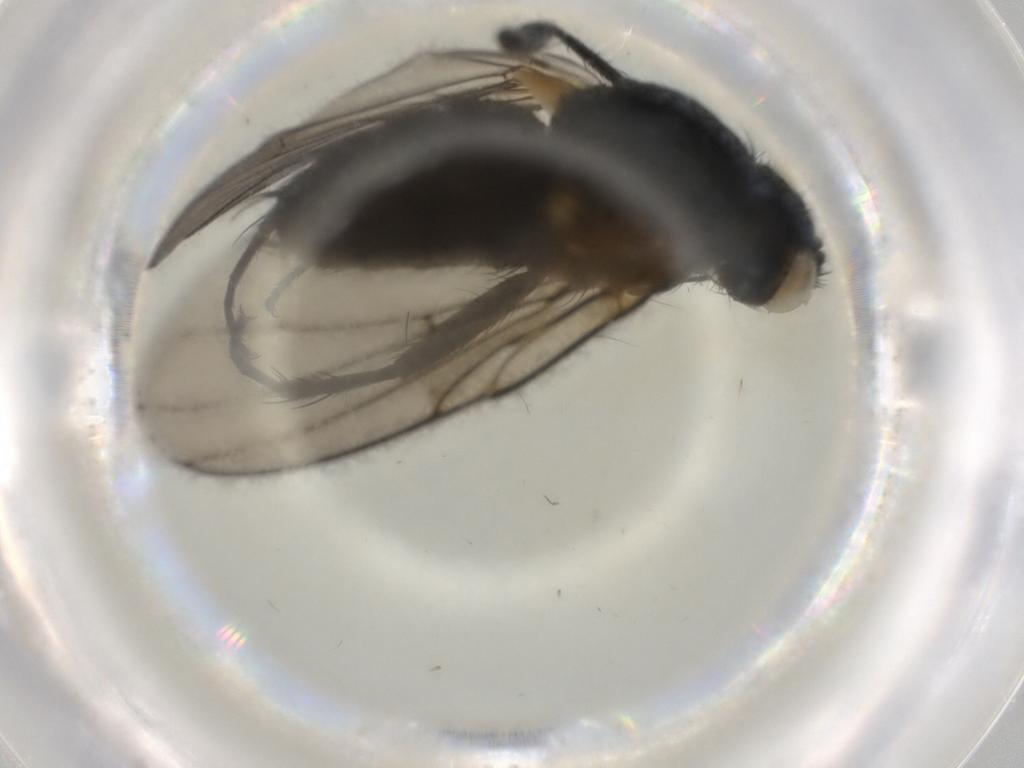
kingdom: Animalia
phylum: Arthropoda
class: Insecta
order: Diptera
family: Tachinidae
